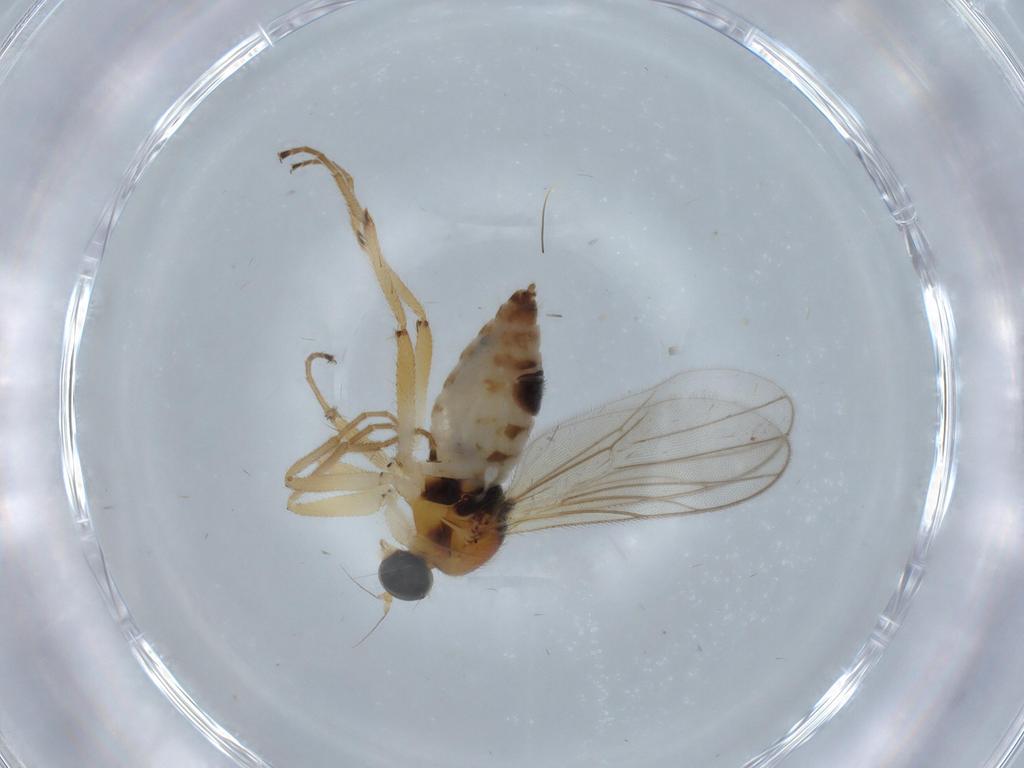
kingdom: Animalia
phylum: Arthropoda
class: Insecta
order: Diptera
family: Hybotidae
